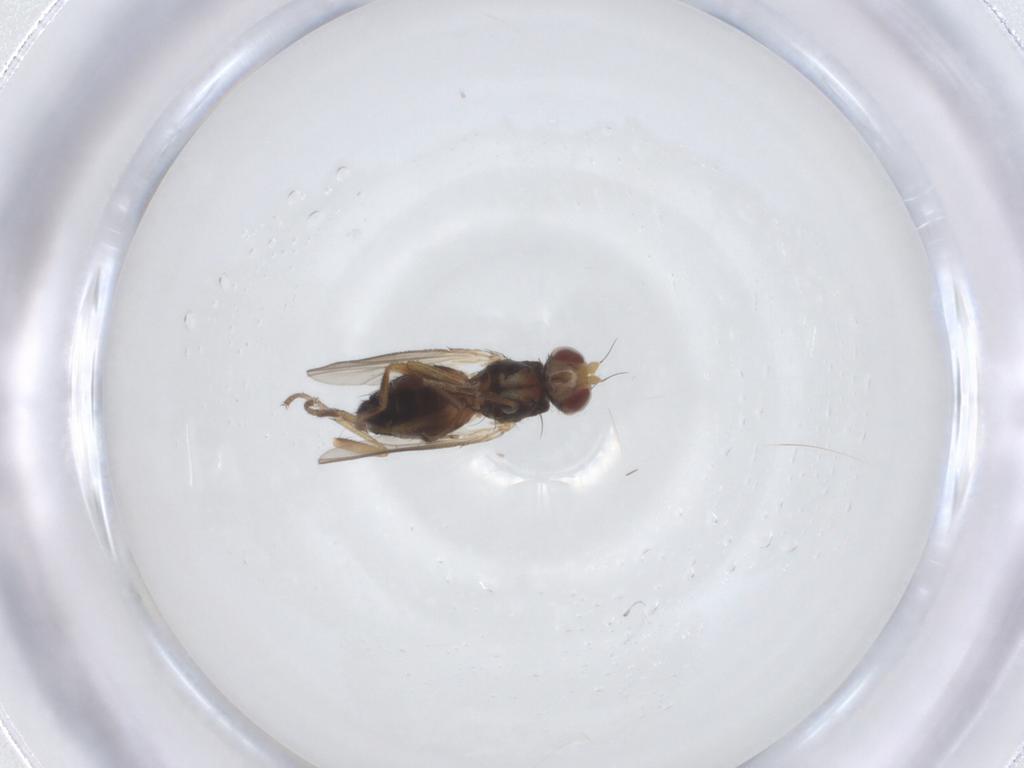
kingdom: Animalia
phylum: Arthropoda
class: Insecta
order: Diptera
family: Heleomyzidae
